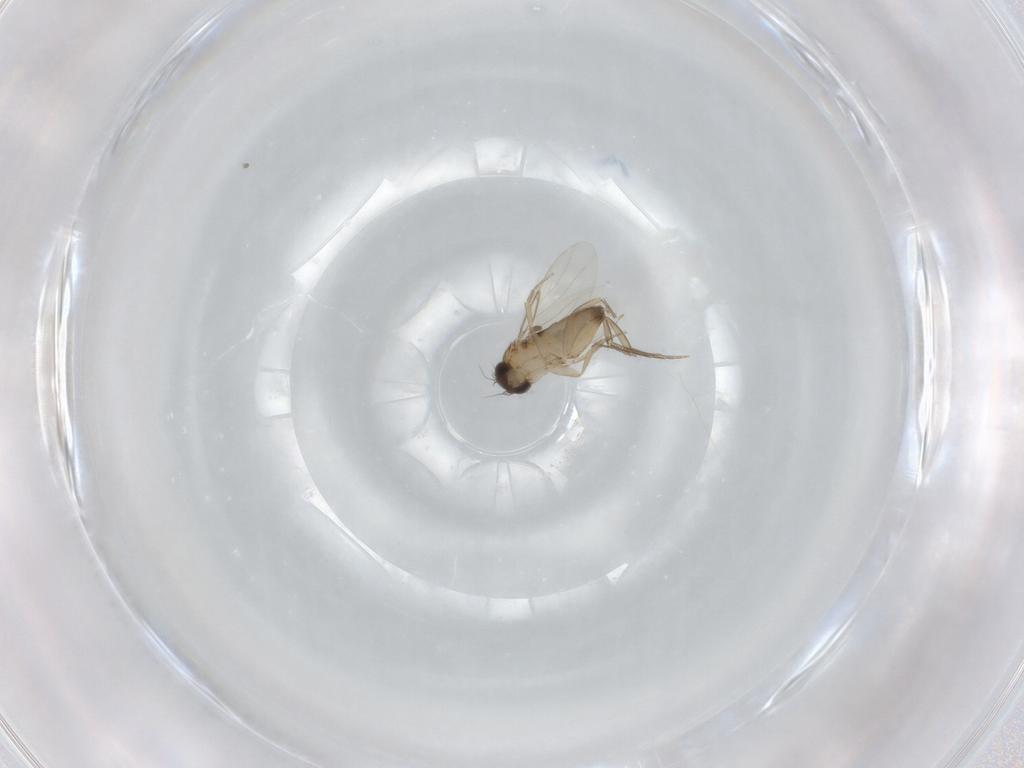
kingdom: Animalia
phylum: Arthropoda
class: Insecta
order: Diptera
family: Phoridae
